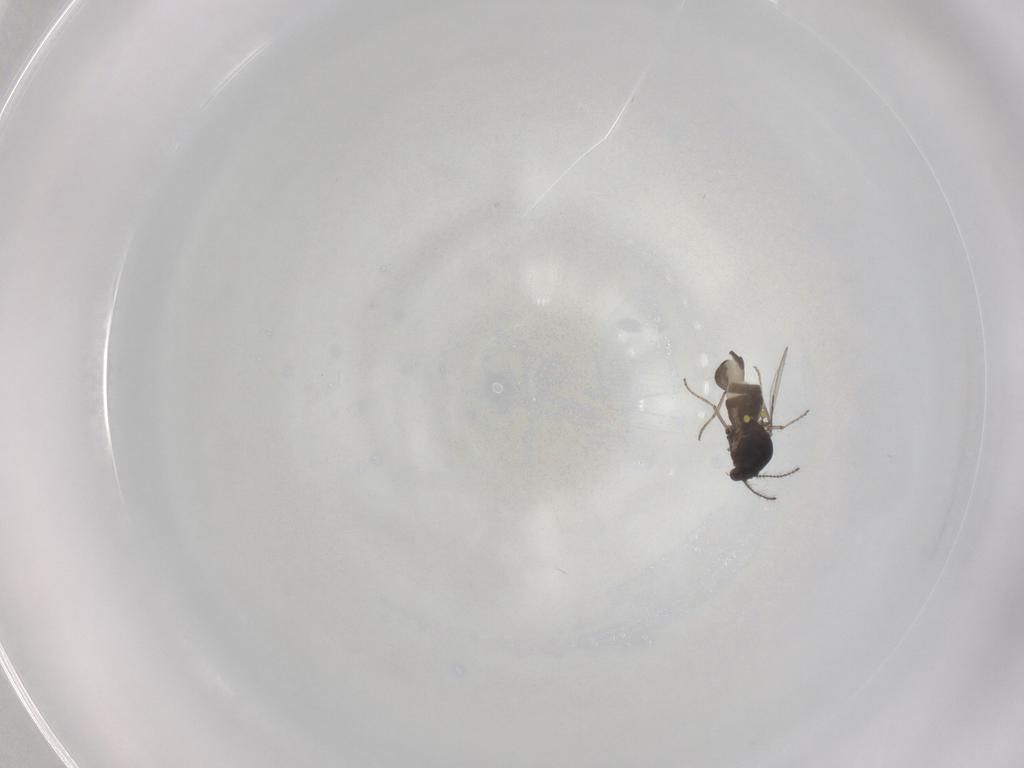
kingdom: Animalia
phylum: Arthropoda
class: Insecta
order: Diptera
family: Ceratopogonidae
